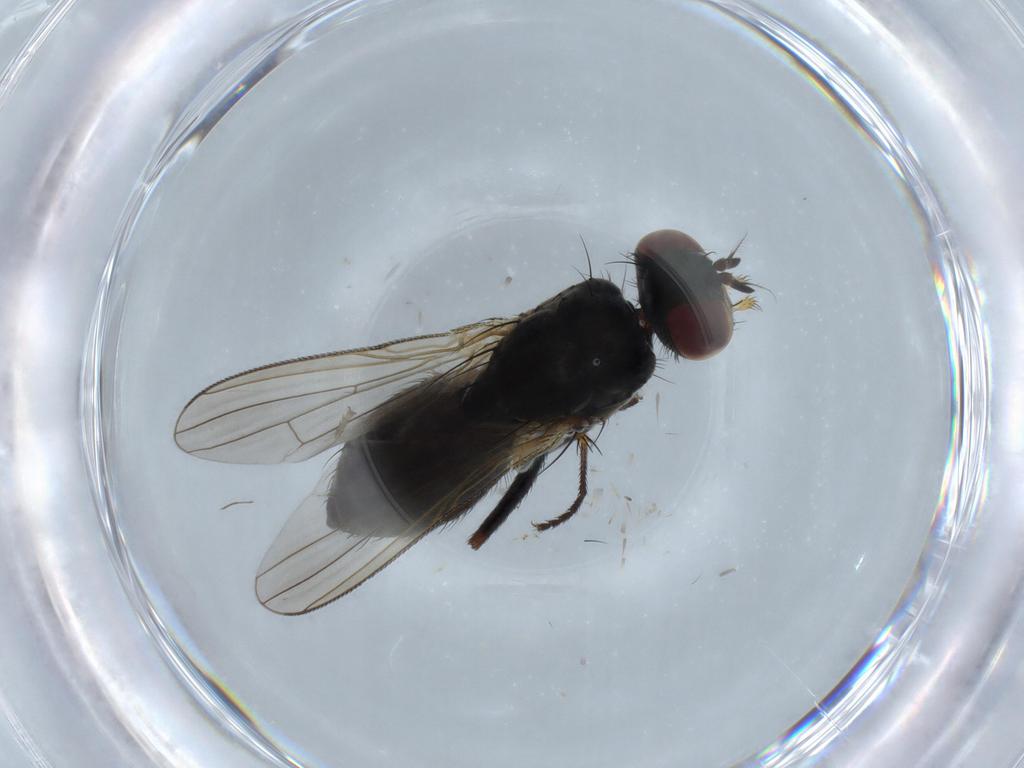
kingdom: Animalia
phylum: Arthropoda
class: Insecta
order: Diptera
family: Muscidae
